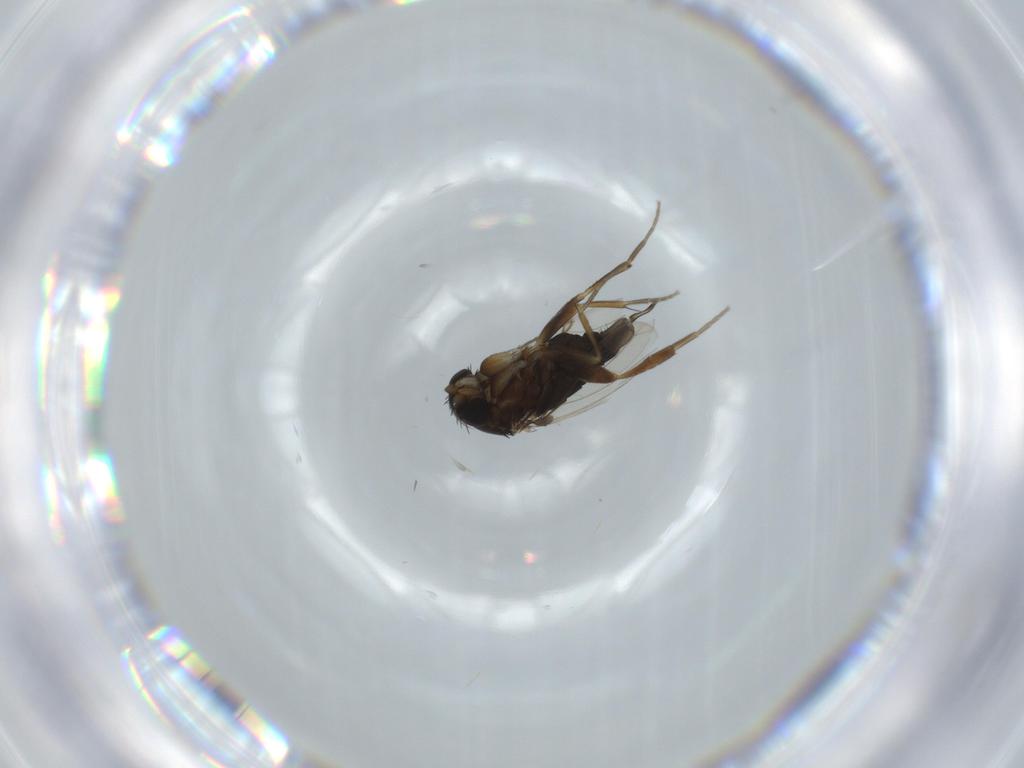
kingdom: Animalia
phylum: Arthropoda
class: Insecta
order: Diptera
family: Phoridae
